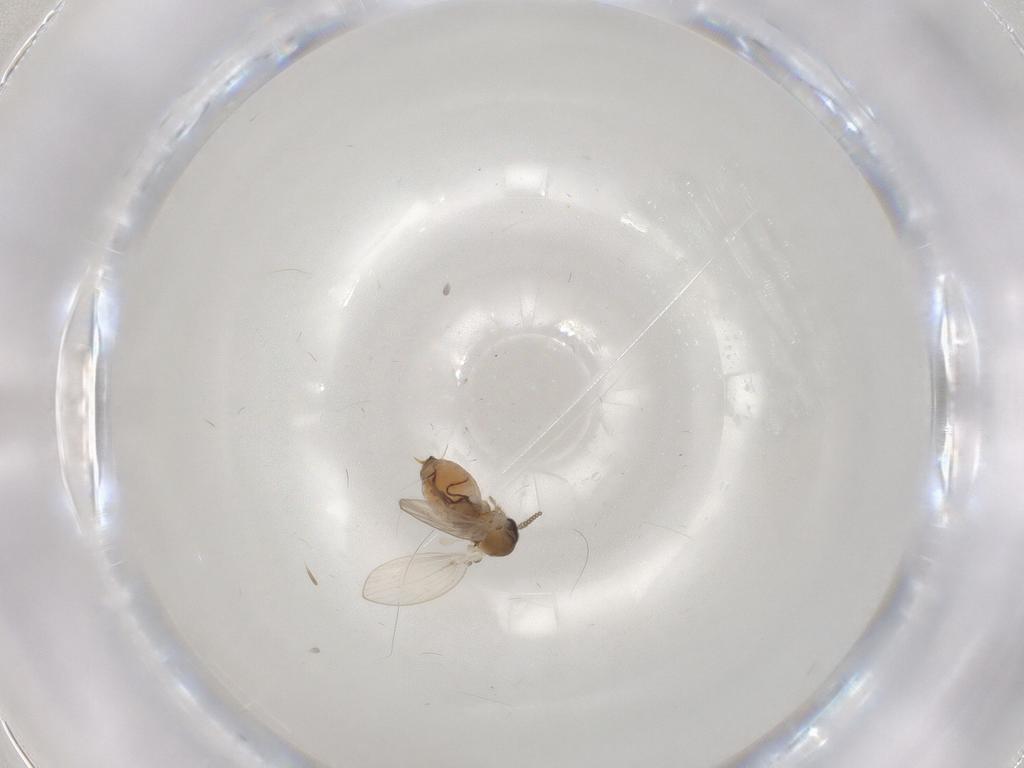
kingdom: Animalia
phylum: Arthropoda
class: Insecta
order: Diptera
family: Psychodidae
